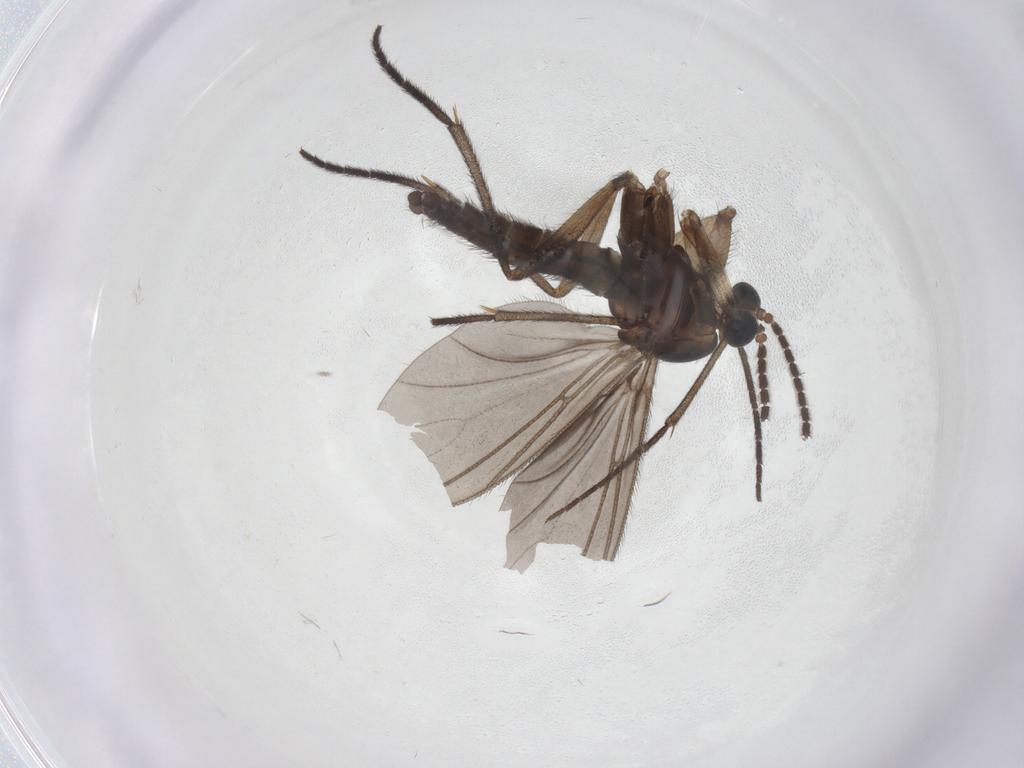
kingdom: Animalia
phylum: Arthropoda
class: Insecta
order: Diptera
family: Sciaridae
